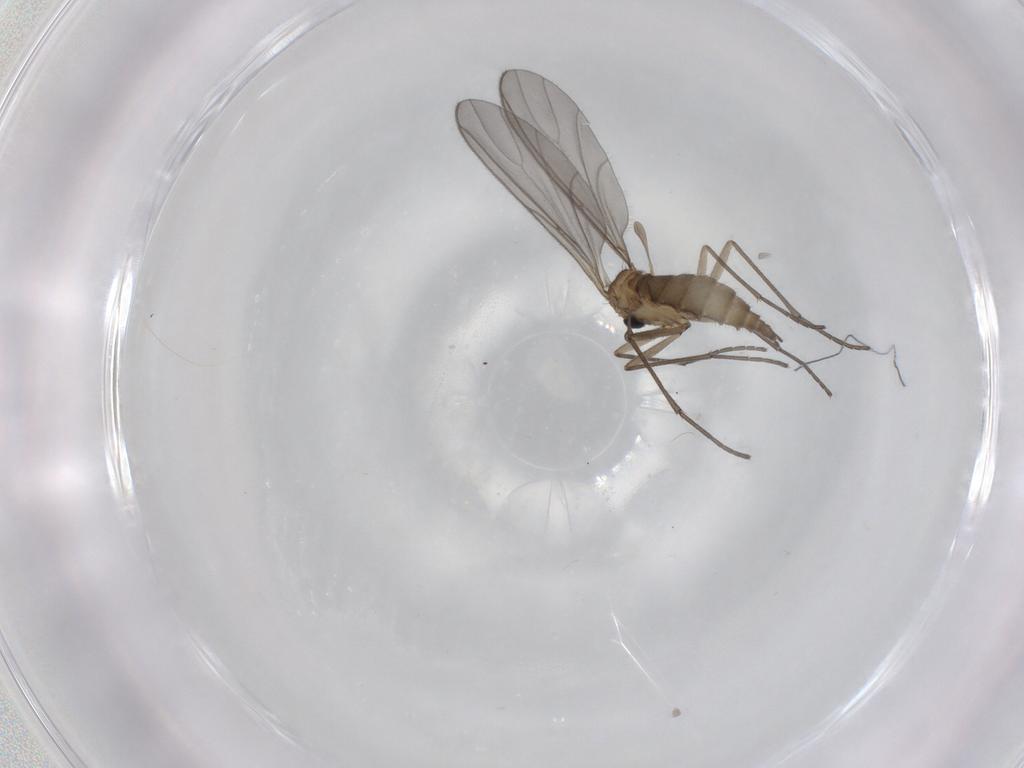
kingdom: Animalia
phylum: Arthropoda
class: Insecta
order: Diptera
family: Sciaridae
